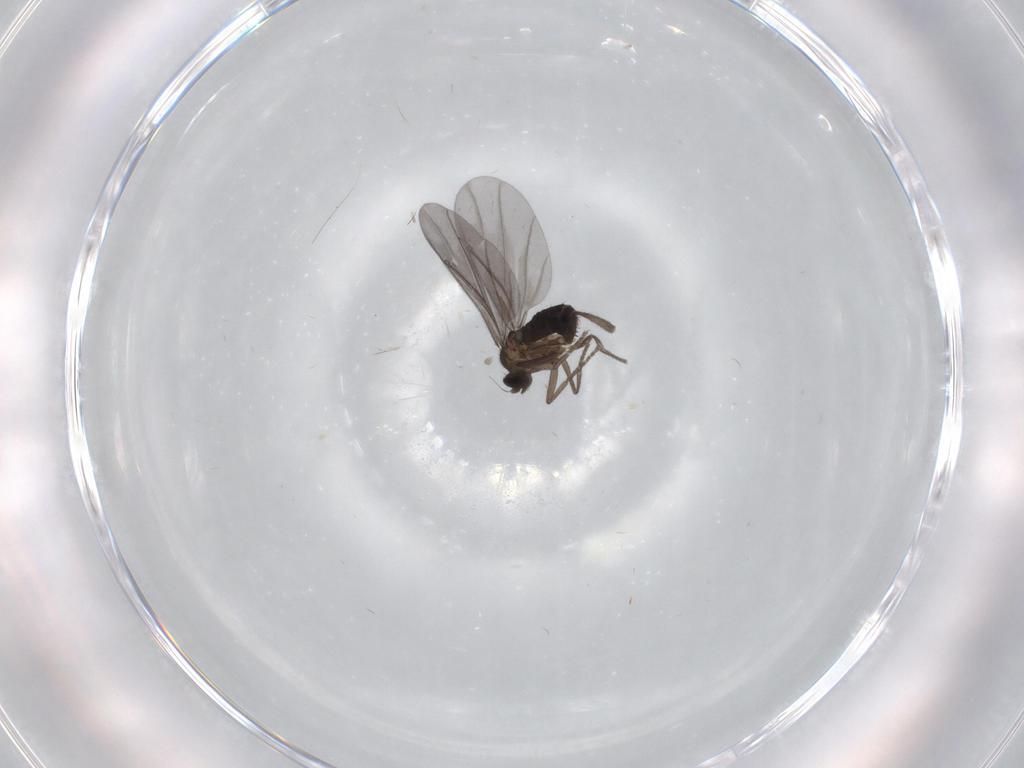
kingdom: Animalia
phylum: Arthropoda
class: Insecta
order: Diptera
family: Phoridae
